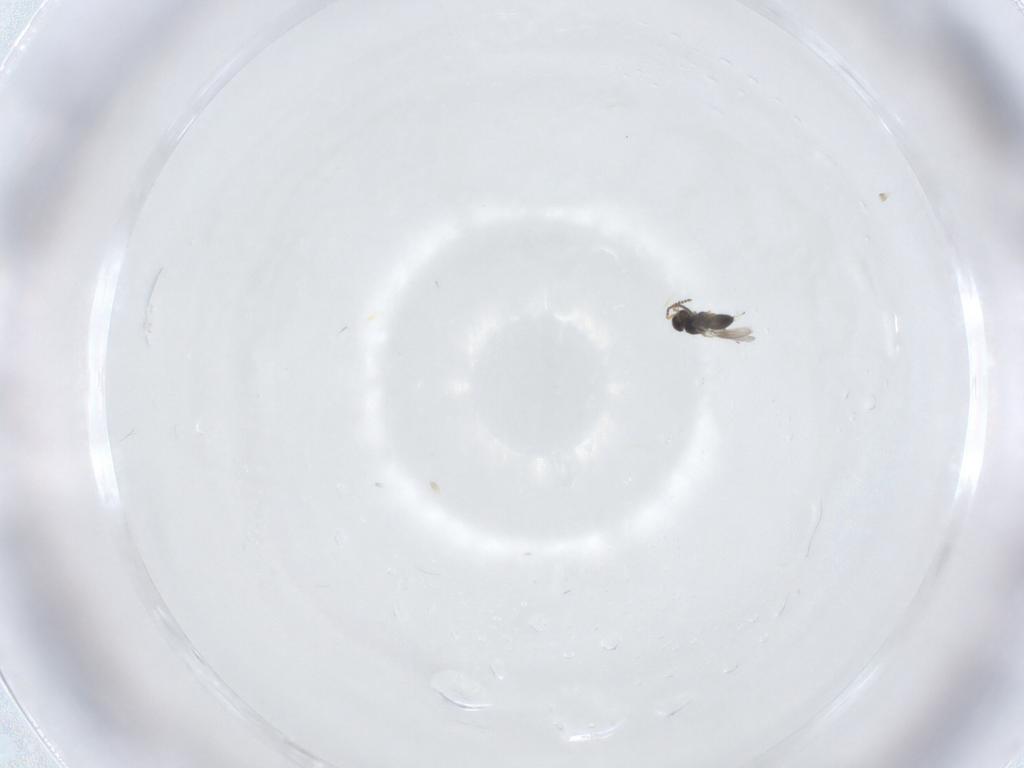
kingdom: Animalia
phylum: Arthropoda
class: Insecta
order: Hymenoptera
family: Scelionidae
